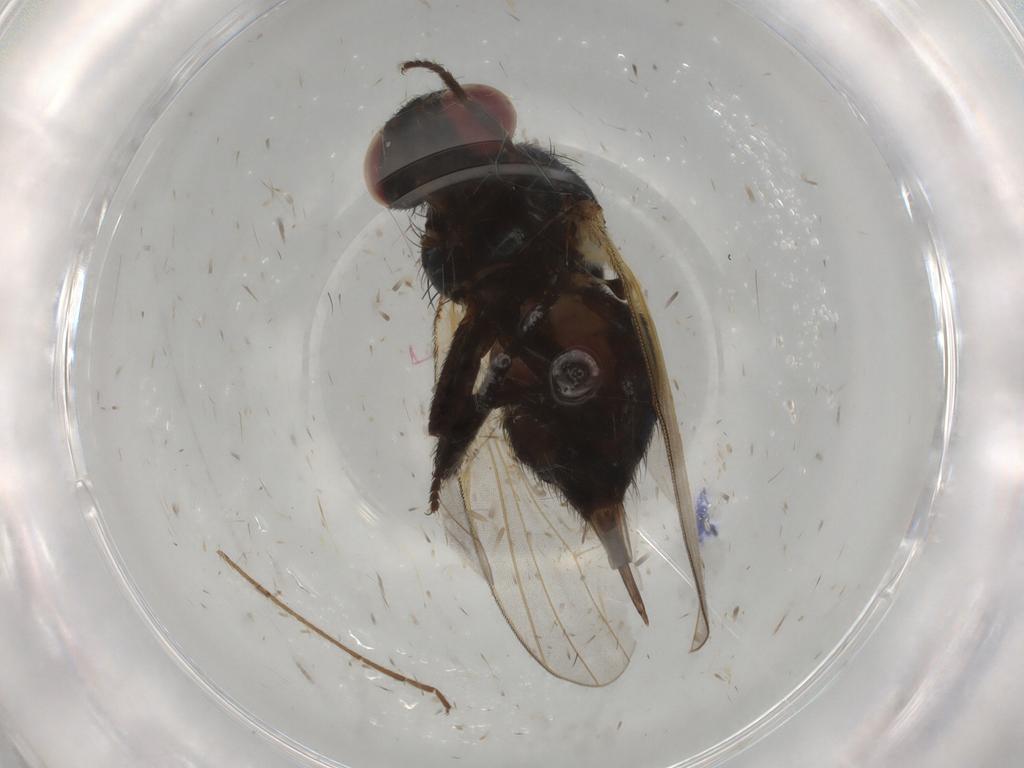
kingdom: Animalia
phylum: Arthropoda
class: Insecta
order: Diptera
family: Lonchaeidae
